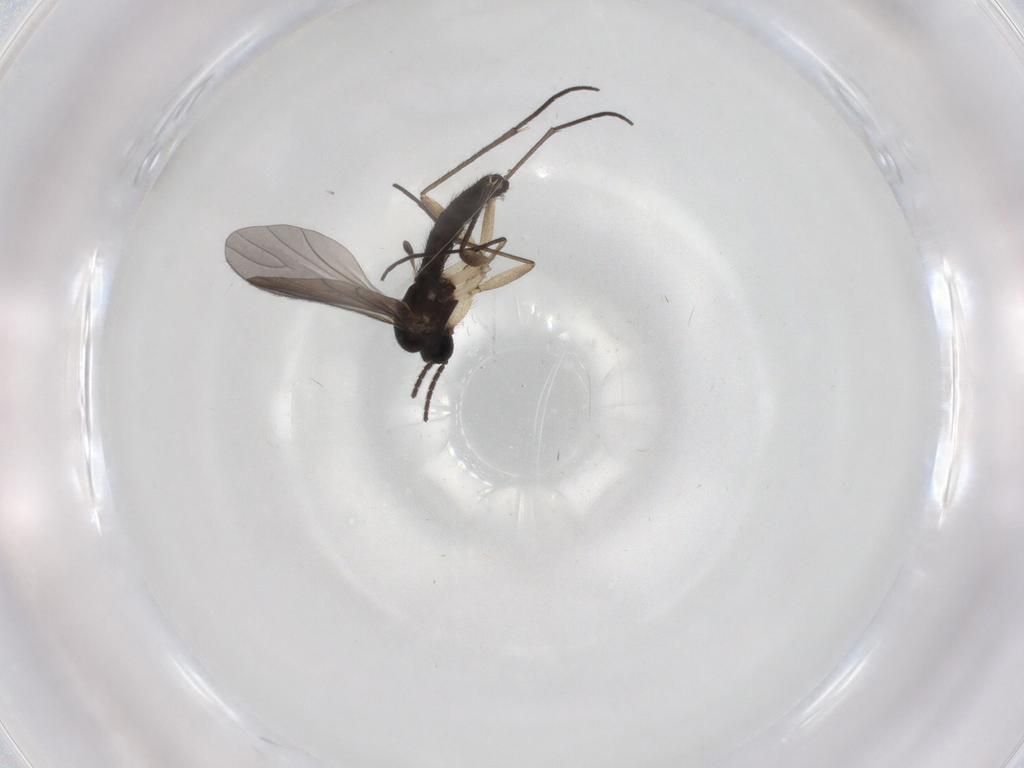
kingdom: Animalia
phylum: Arthropoda
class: Insecta
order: Diptera
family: Sciaridae
